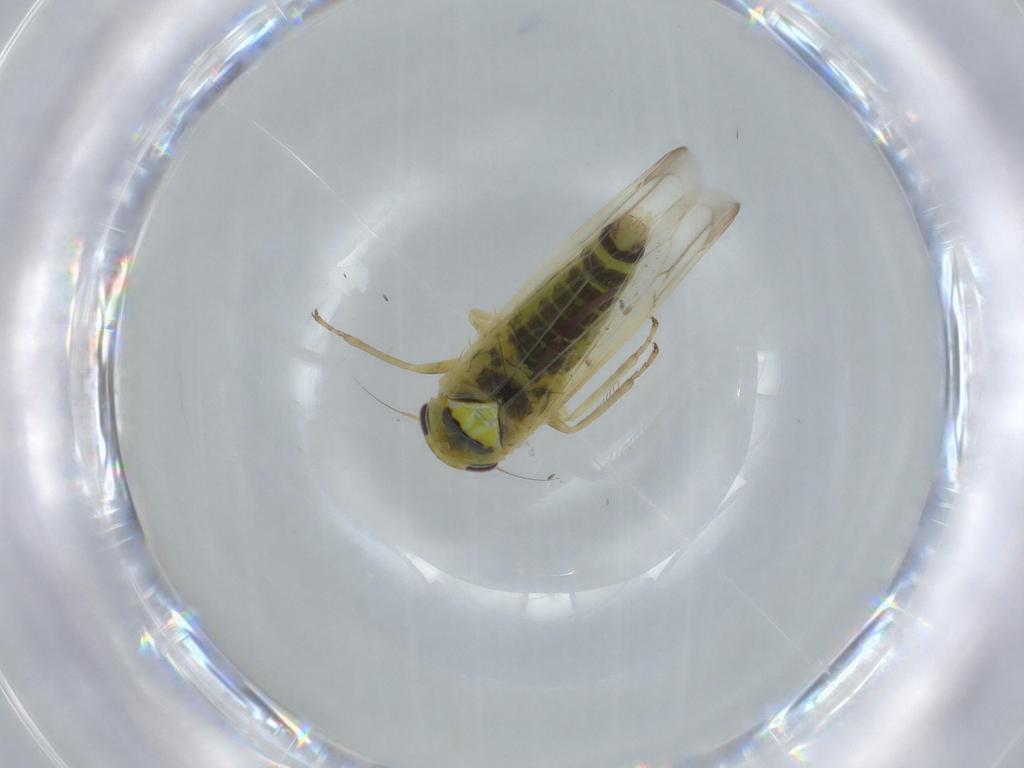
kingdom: Animalia
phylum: Arthropoda
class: Insecta
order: Hemiptera
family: Cicadellidae
